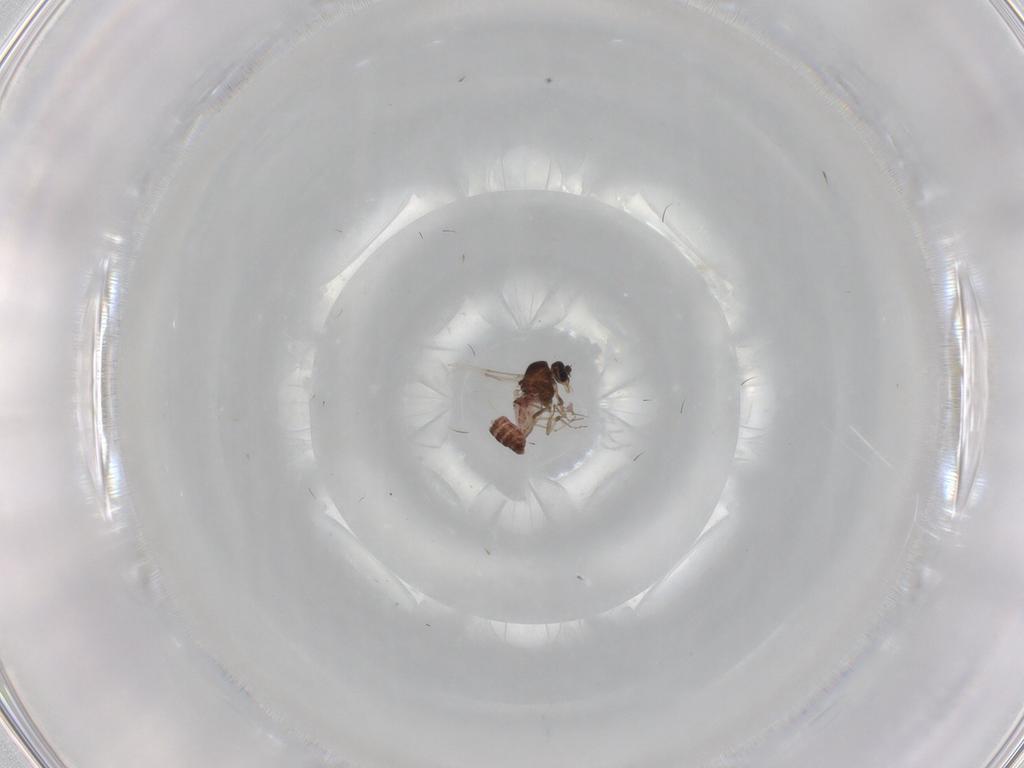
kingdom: Animalia
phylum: Arthropoda
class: Insecta
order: Diptera
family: Ceratopogonidae
